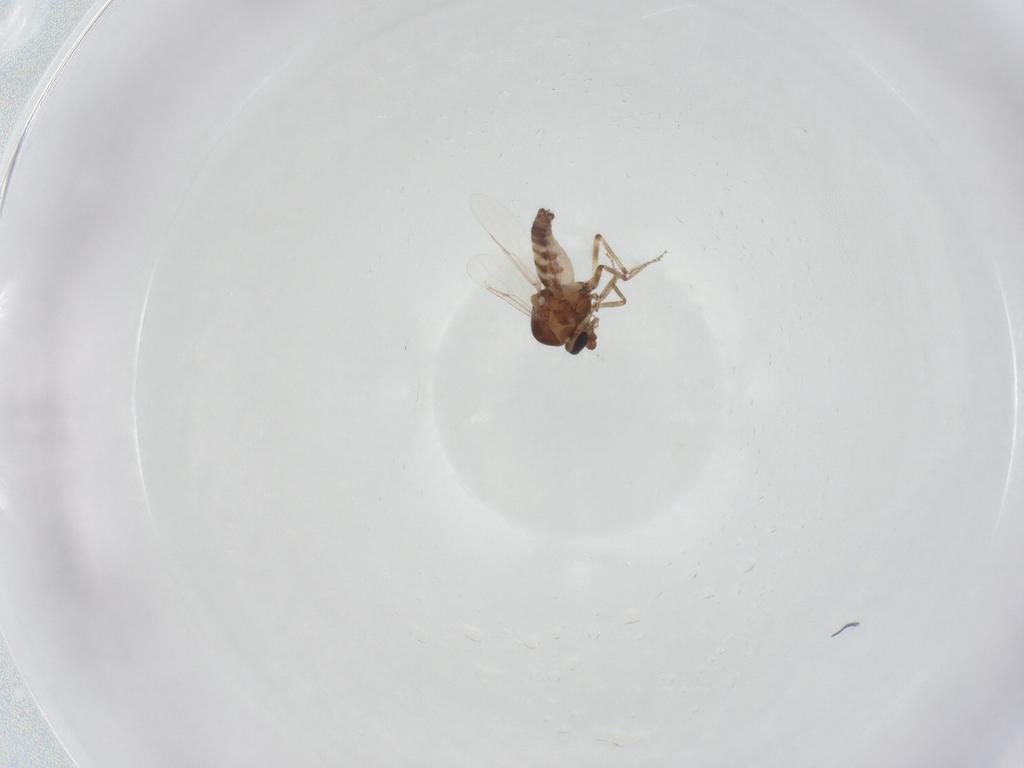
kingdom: Animalia
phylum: Arthropoda
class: Insecta
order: Diptera
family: Ceratopogonidae
